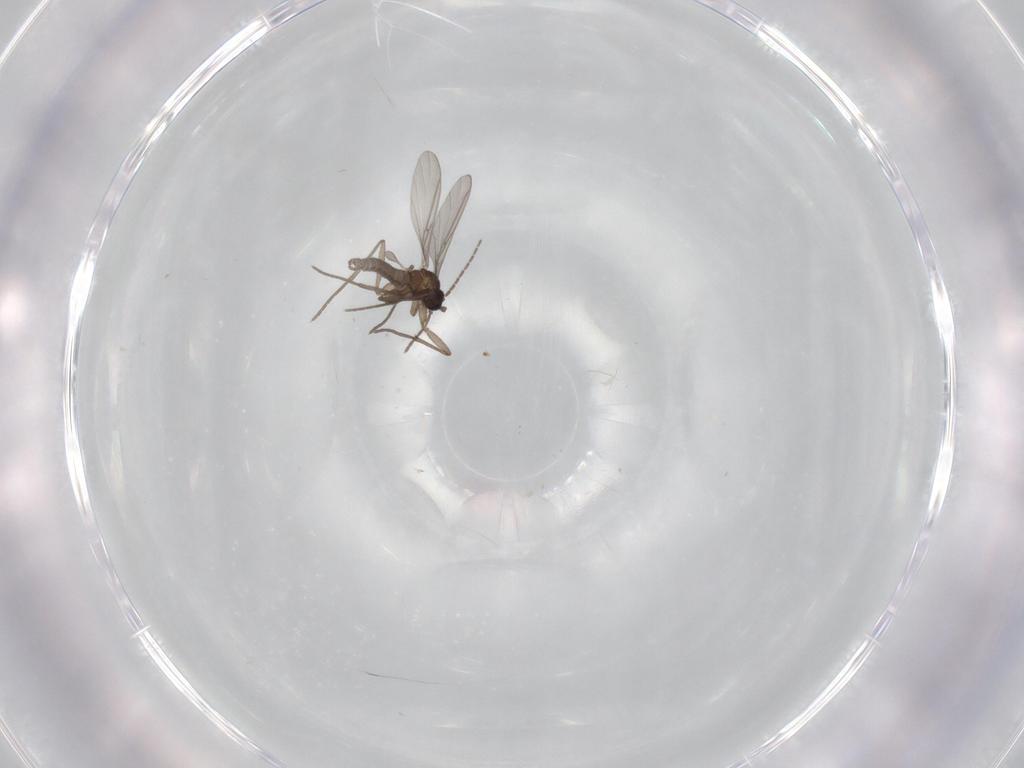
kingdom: Animalia
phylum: Arthropoda
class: Insecta
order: Diptera
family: Sciaridae
